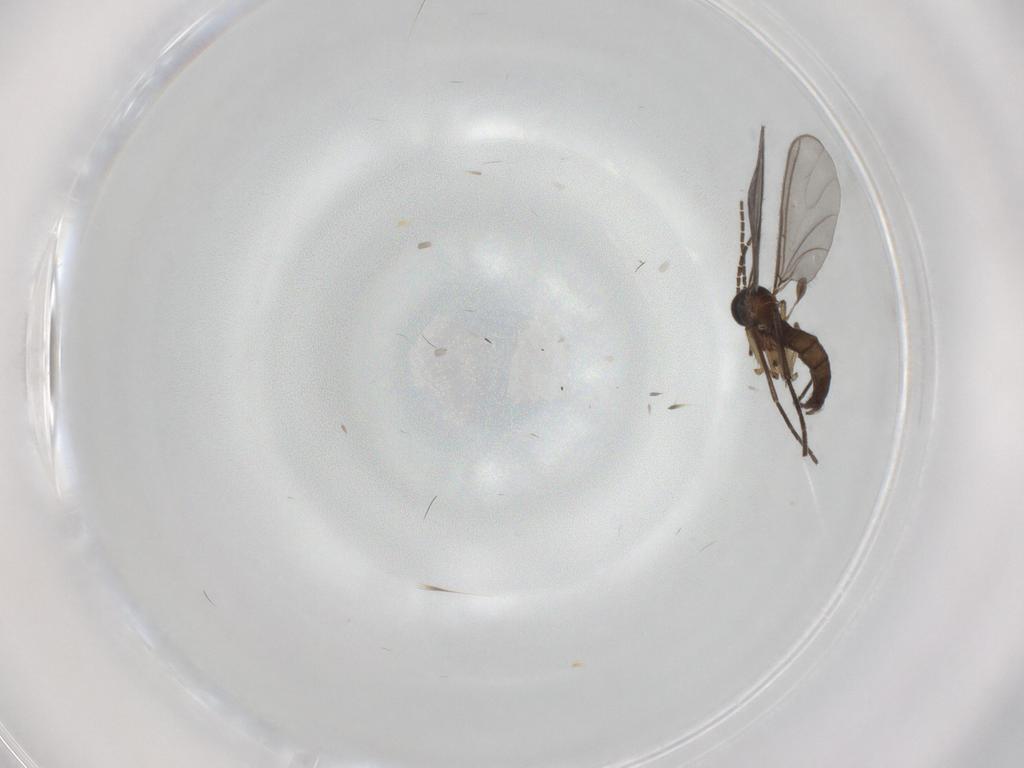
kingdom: Animalia
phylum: Arthropoda
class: Insecta
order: Diptera
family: Sciaridae
